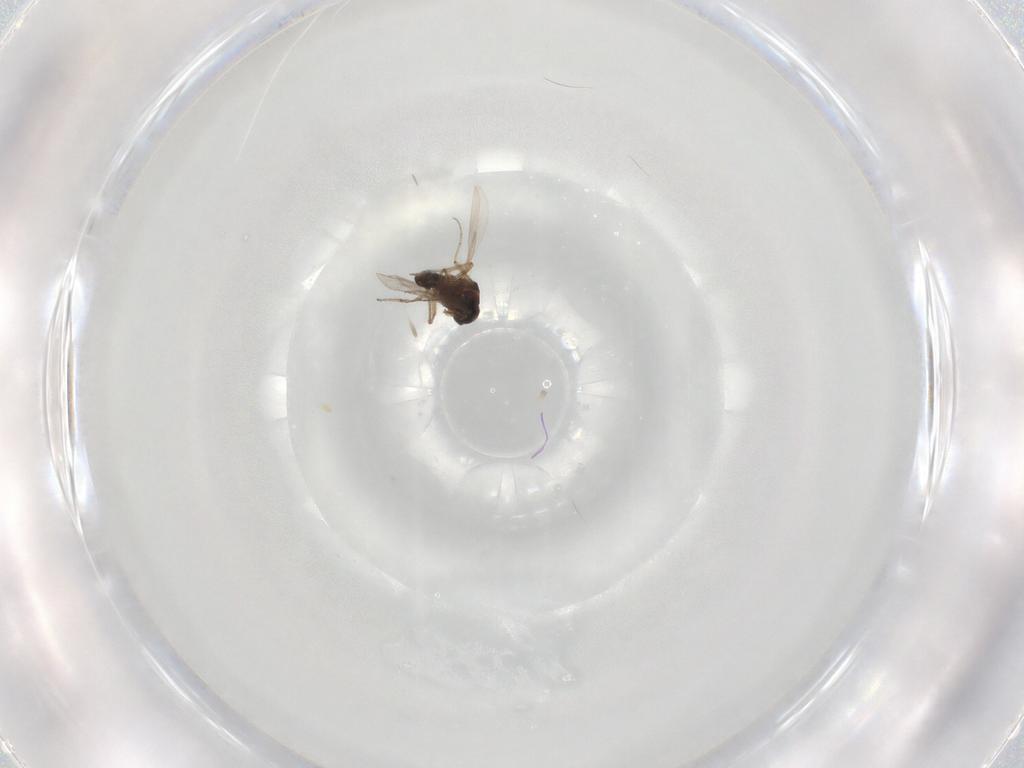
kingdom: Animalia
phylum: Arthropoda
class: Insecta
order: Diptera
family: Ceratopogonidae
